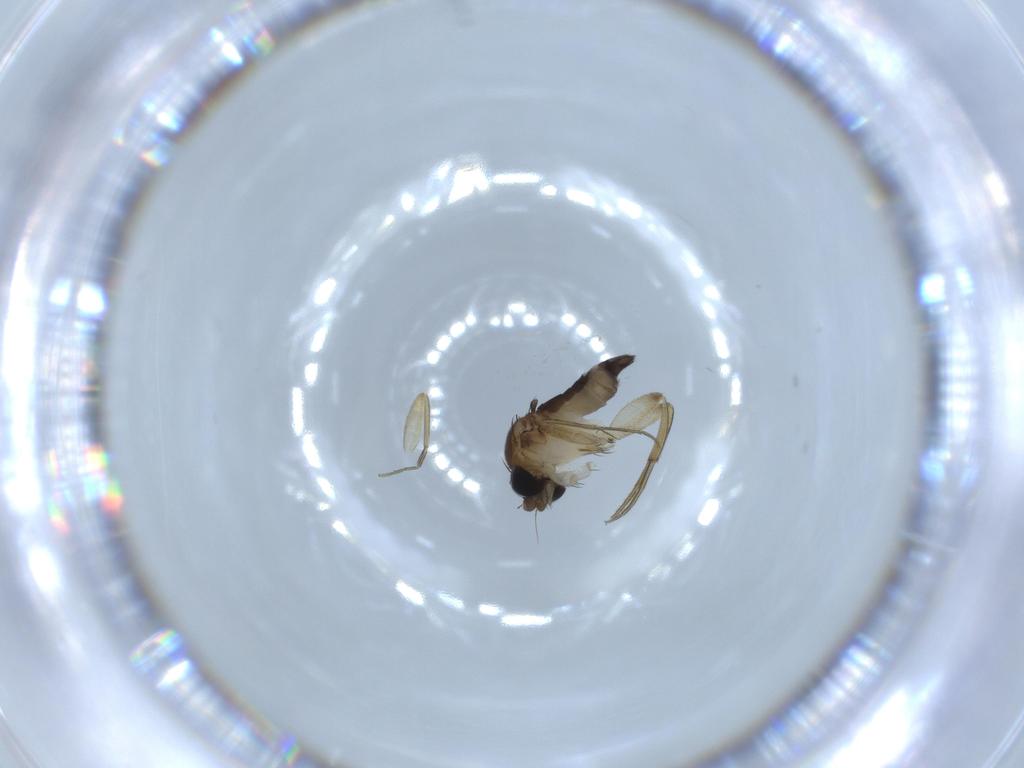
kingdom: Animalia
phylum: Arthropoda
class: Insecta
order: Diptera
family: Phoridae
